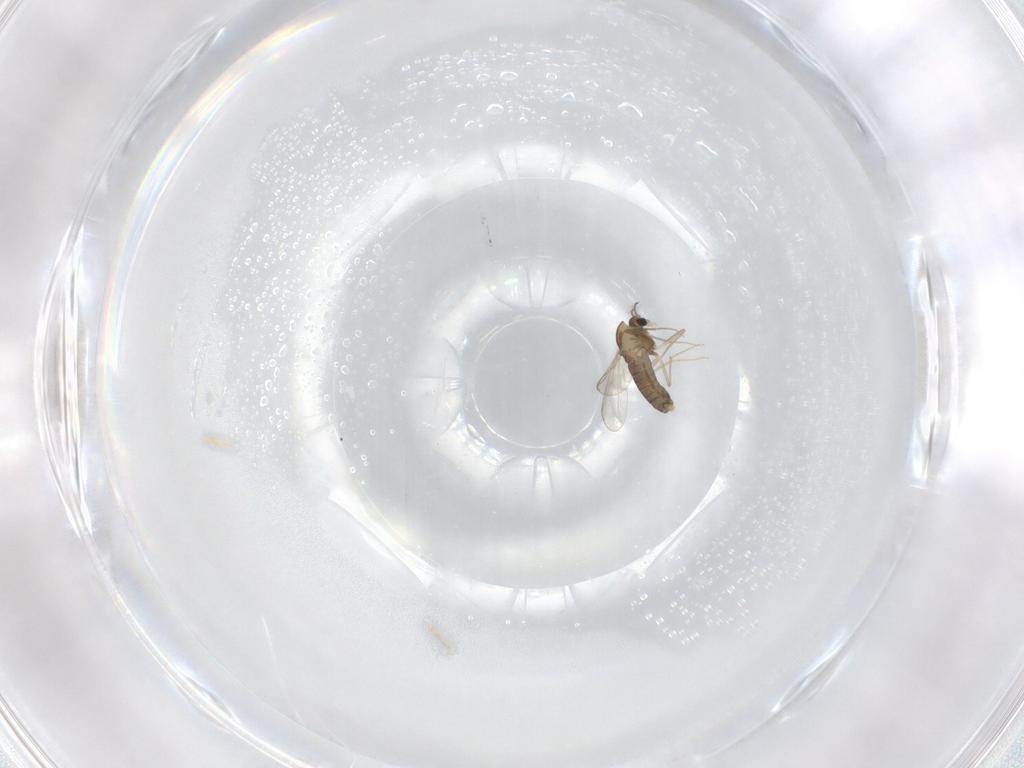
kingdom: Animalia
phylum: Arthropoda
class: Insecta
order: Diptera
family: Chironomidae
